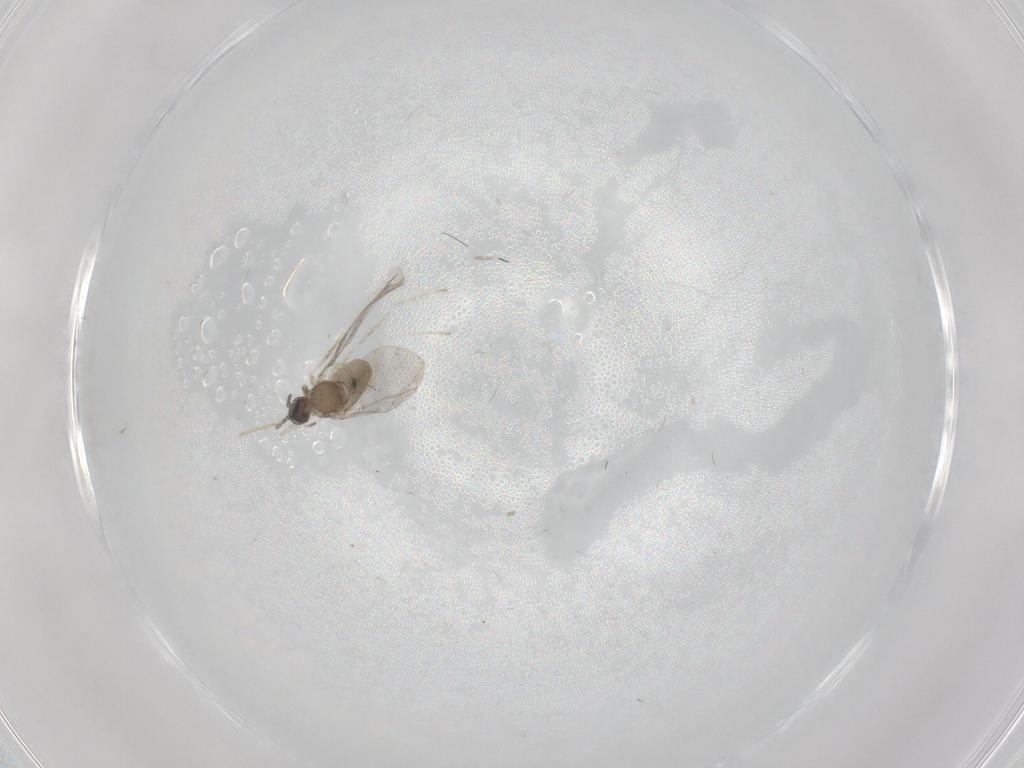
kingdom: Animalia
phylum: Arthropoda
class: Insecta
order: Diptera
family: Cecidomyiidae
